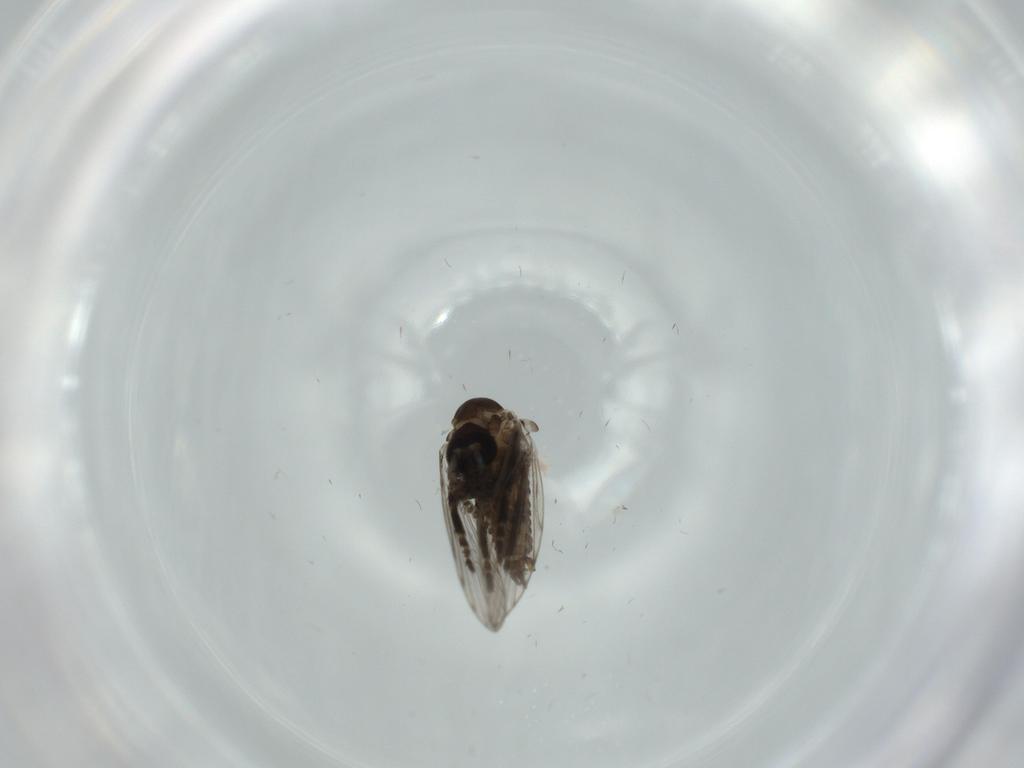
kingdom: Animalia
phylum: Arthropoda
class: Insecta
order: Diptera
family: Psychodidae
